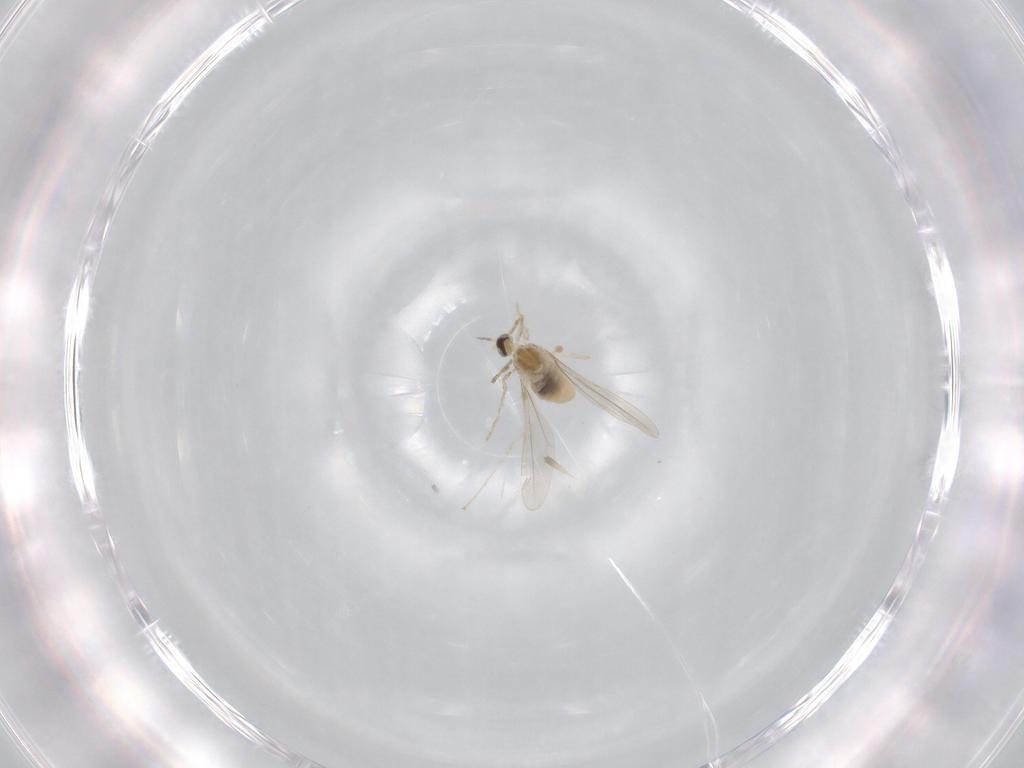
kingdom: Animalia
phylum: Arthropoda
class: Insecta
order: Diptera
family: Cecidomyiidae
